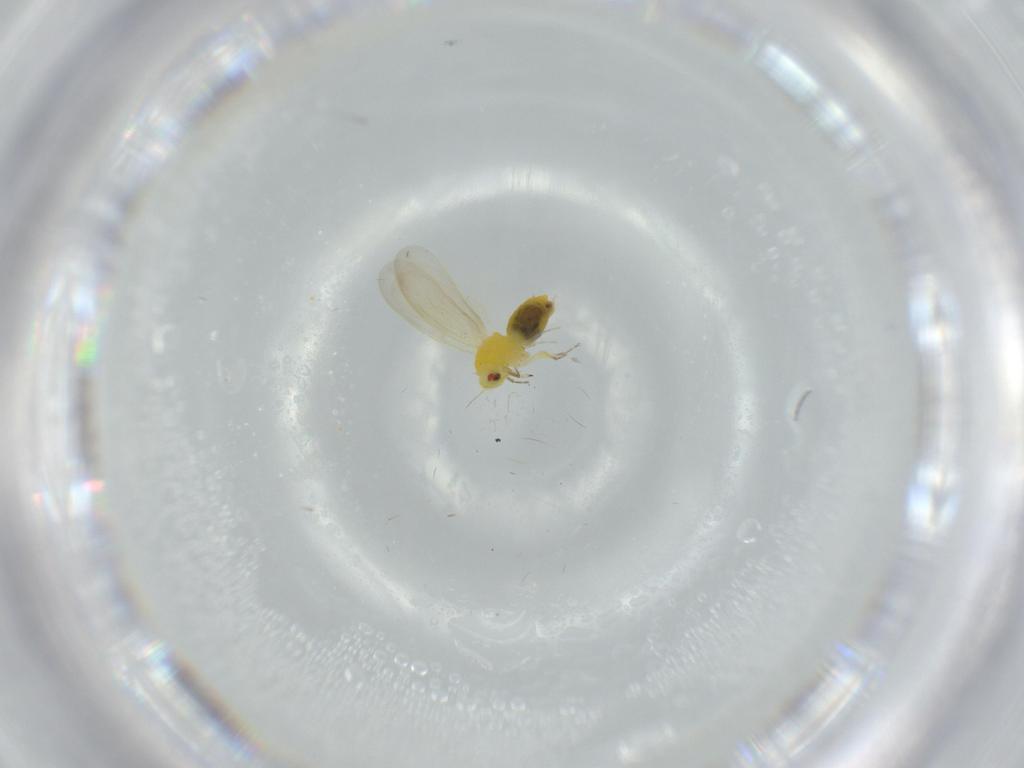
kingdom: Animalia
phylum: Arthropoda
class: Insecta
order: Hemiptera
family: Aleyrodidae
